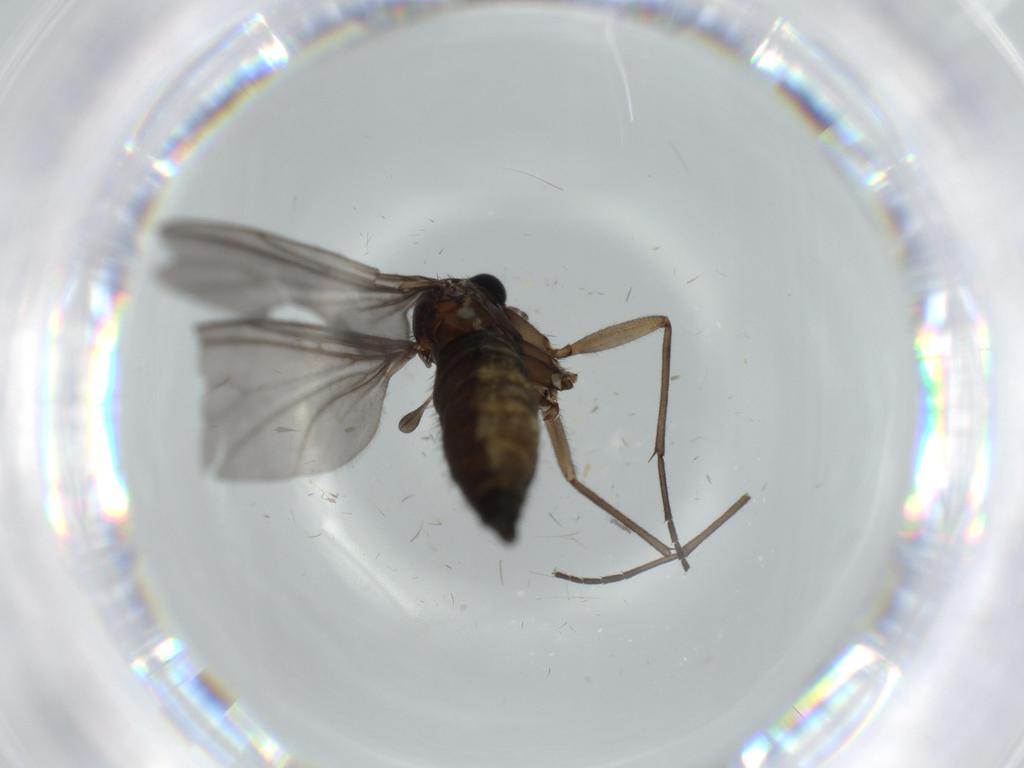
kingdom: Animalia
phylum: Arthropoda
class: Insecta
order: Diptera
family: Sciaridae
